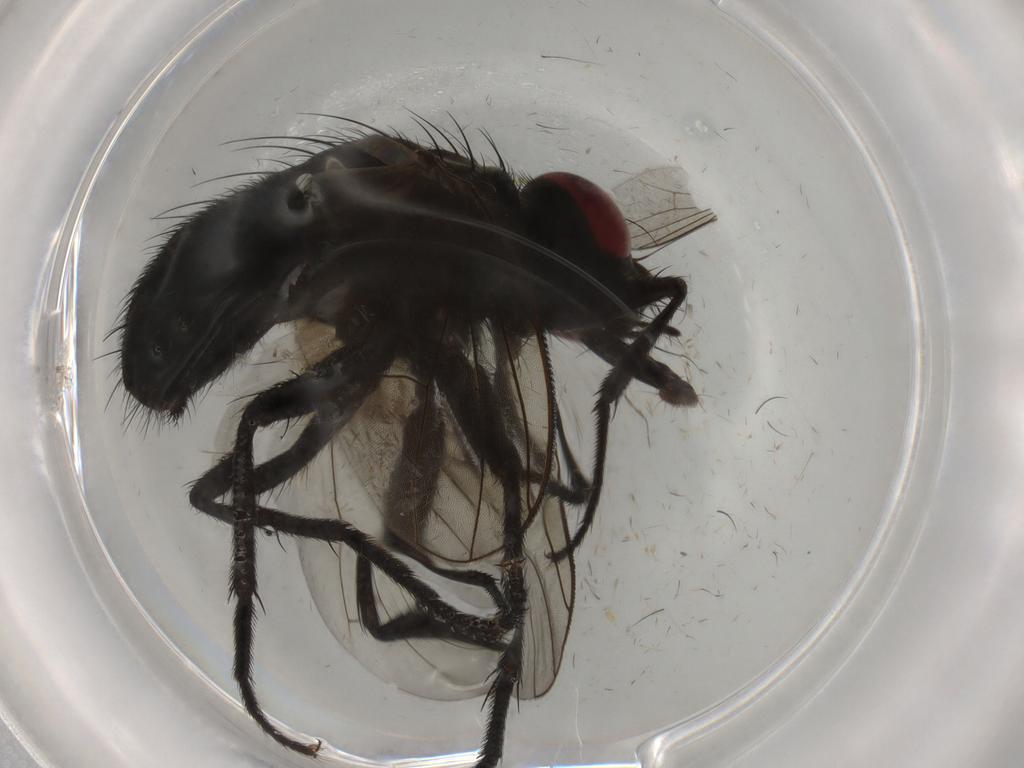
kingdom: Animalia
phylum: Arthropoda
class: Insecta
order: Diptera
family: Muscidae
